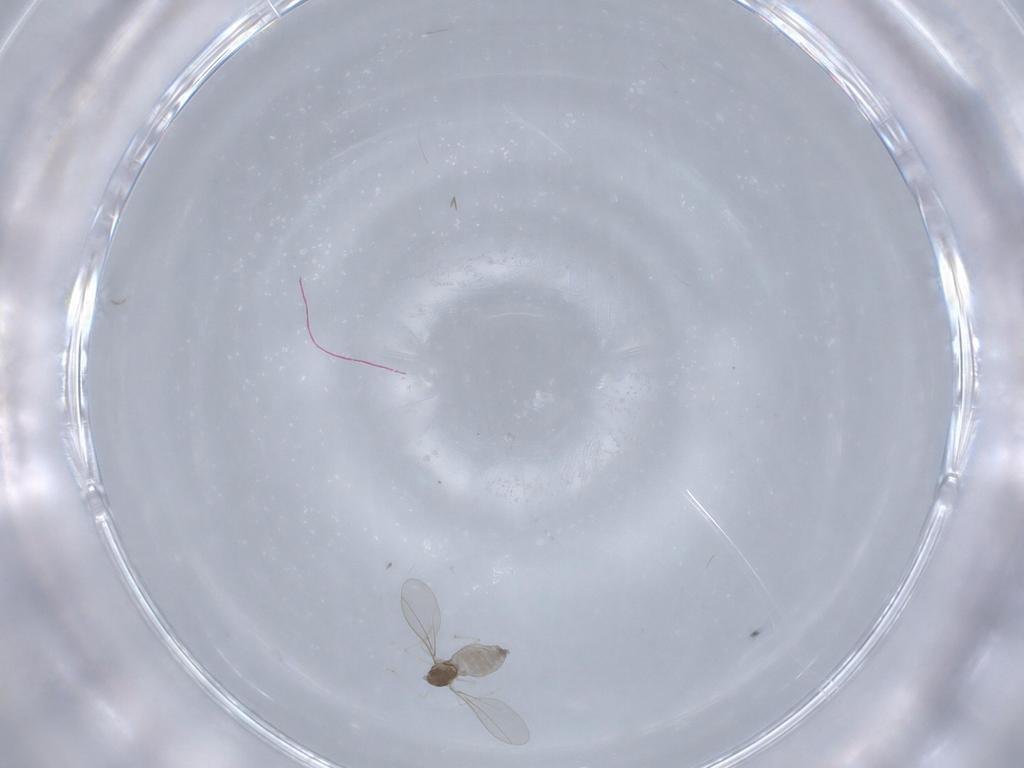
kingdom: Animalia
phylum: Arthropoda
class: Insecta
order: Diptera
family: Cecidomyiidae
